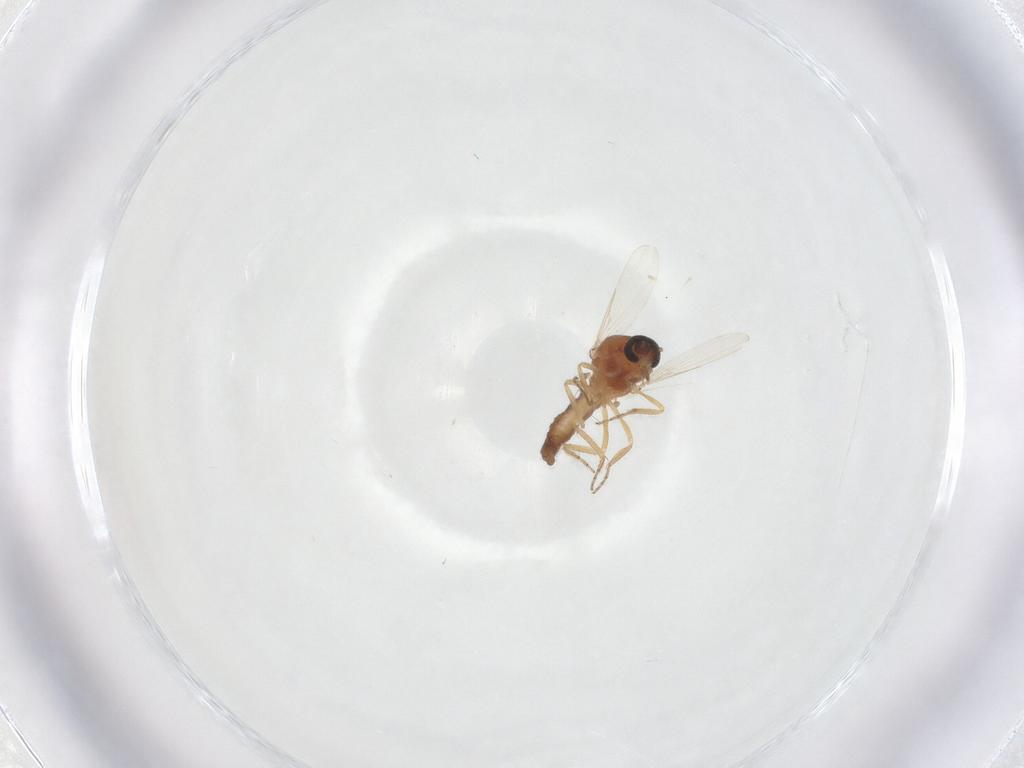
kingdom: Animalia
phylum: Arthropoda
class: Insecta
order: Diptera
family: Ceratopogonidae
